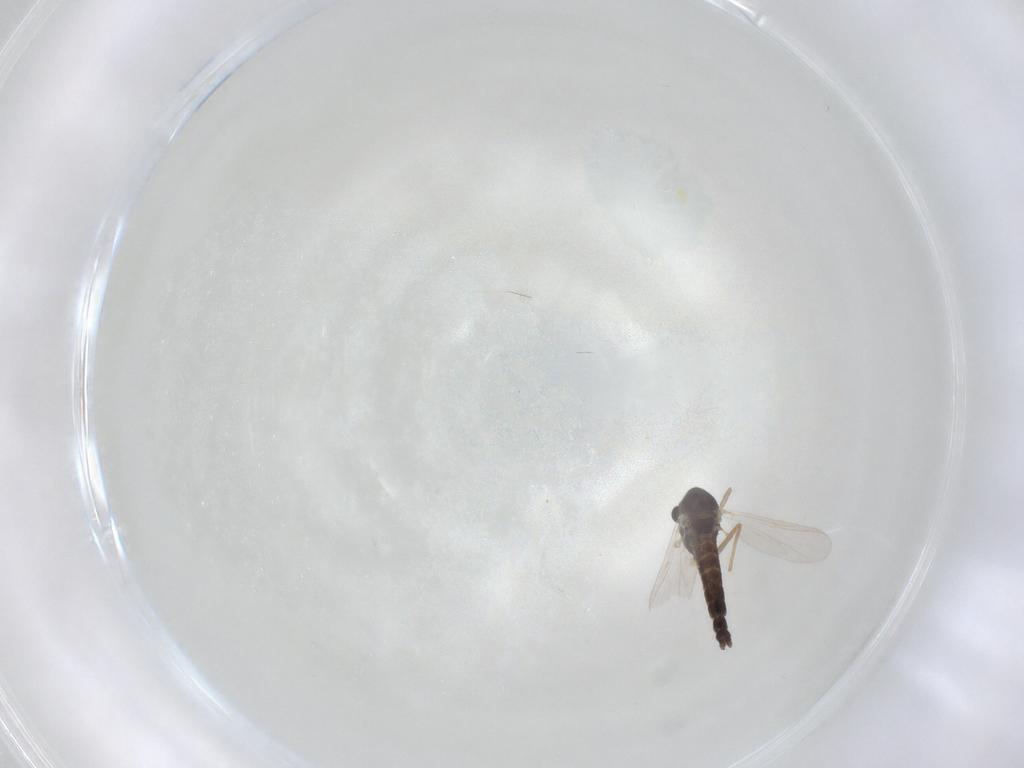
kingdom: Animalia
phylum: Arthropoda
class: Insecta
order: Diptera
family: Chironomidae
